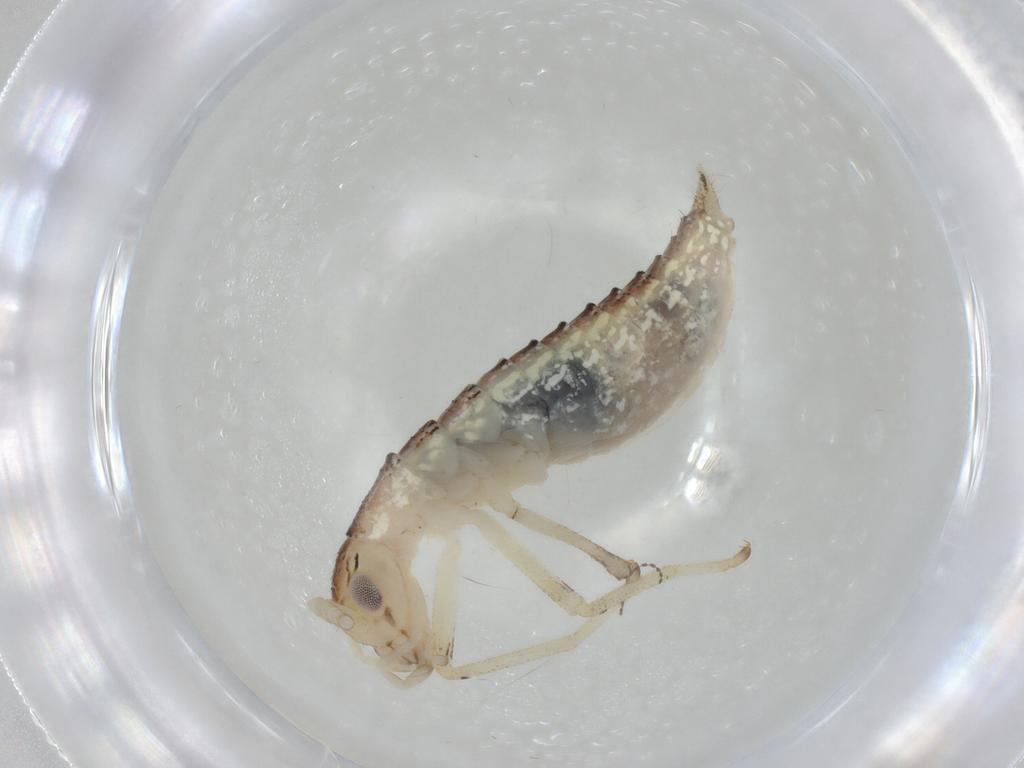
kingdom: Animalia
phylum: Arthropoda
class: Insecta
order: Orthoptera
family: Oecanthidae
